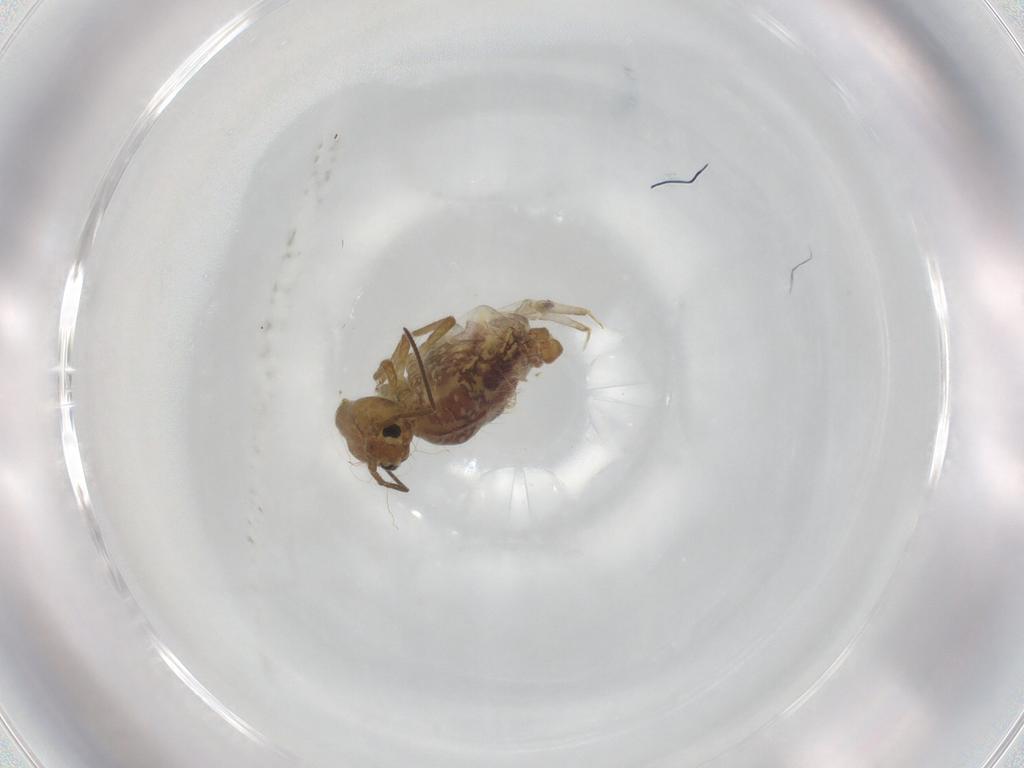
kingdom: Animalia
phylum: Arthropoda
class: Collembola
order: Symphypleona
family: Sminthuridae
